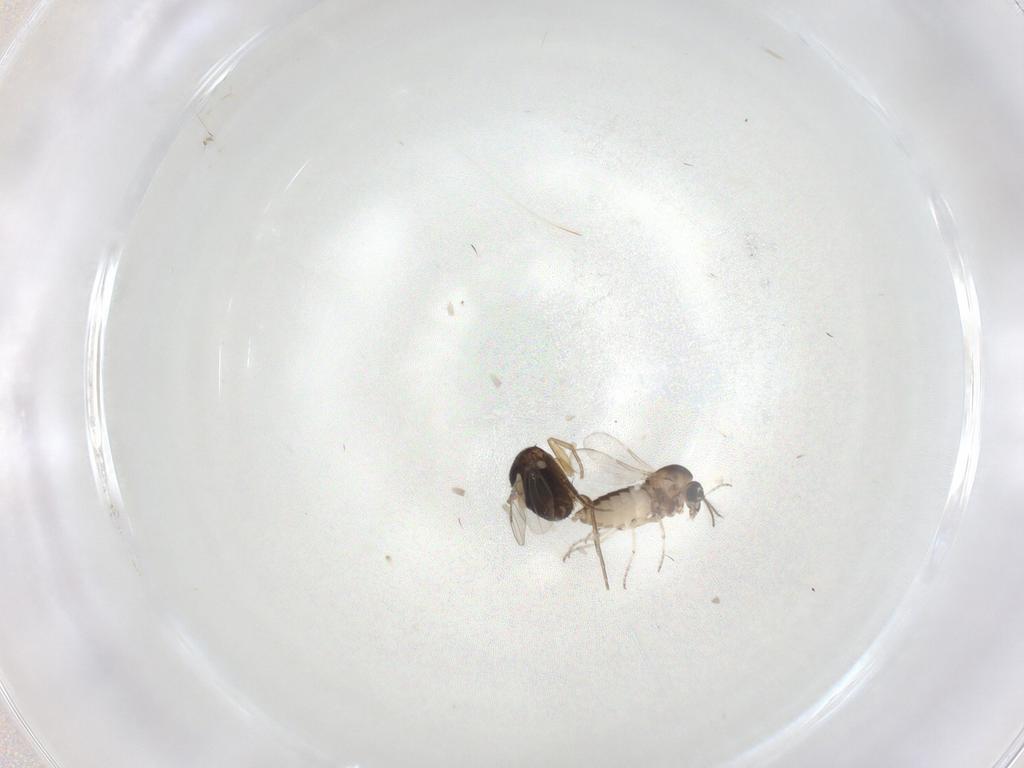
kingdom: Animalia
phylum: Arthropoda
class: Insecta
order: Diptera
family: Phoridae
